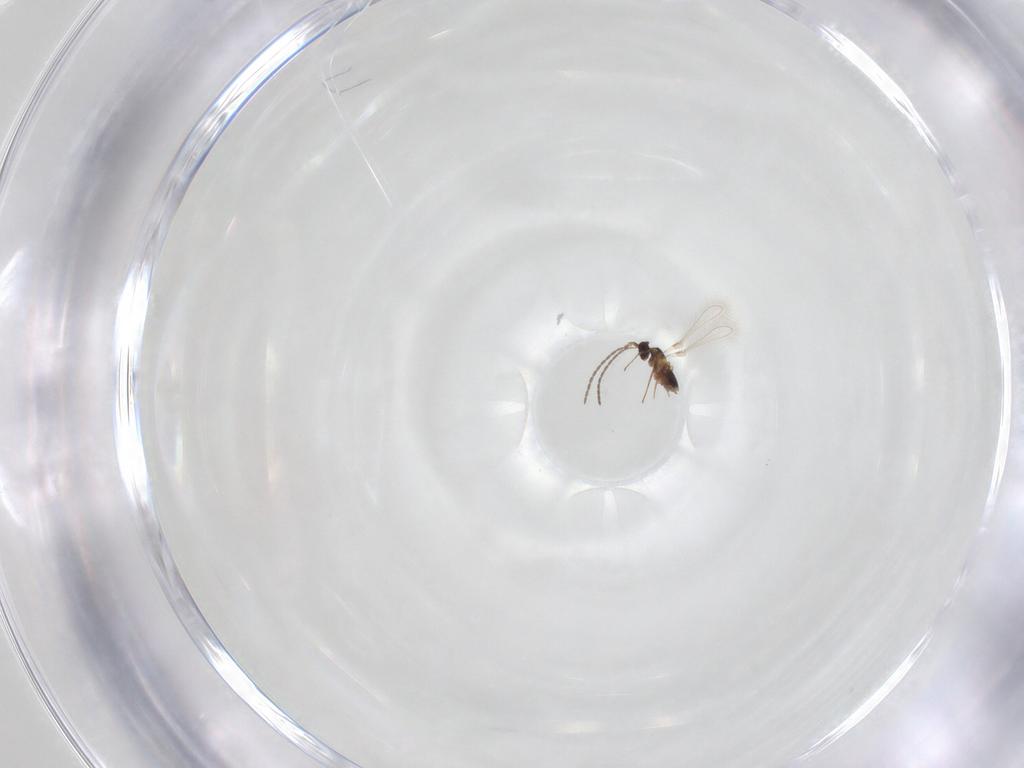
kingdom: Animalia
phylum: Arthropoda
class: Insecta
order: Hymenoptera
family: Mymaridae
